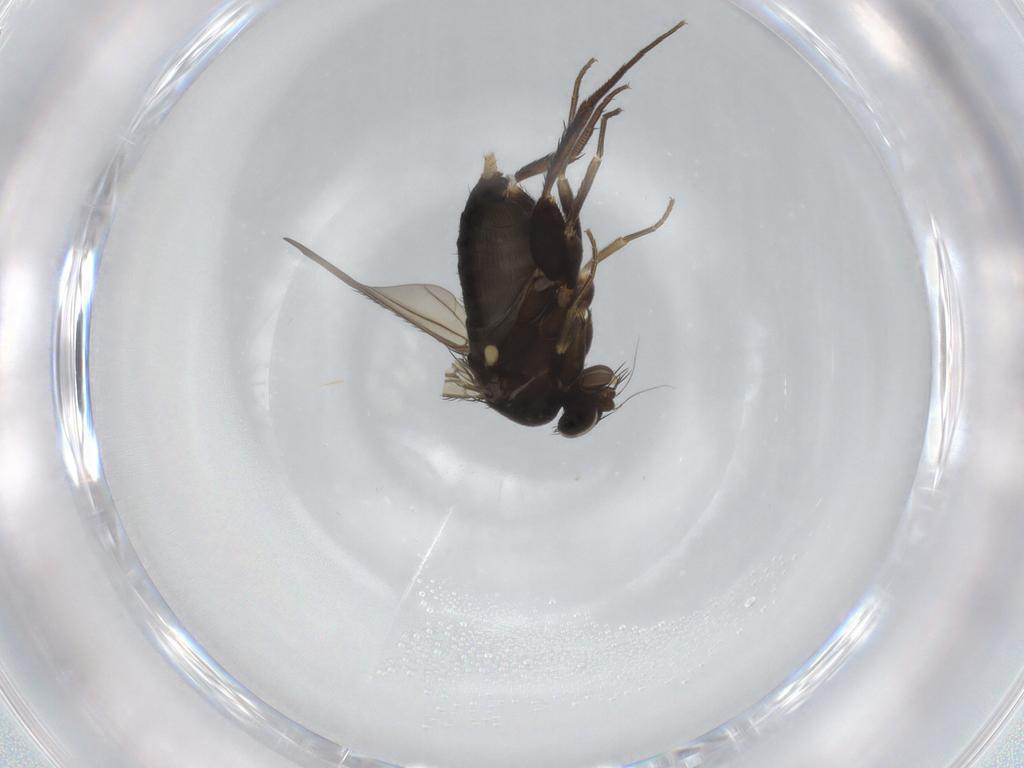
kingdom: Animalia
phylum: Arthropoda
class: Insecta
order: Diptera
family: Phoridae
